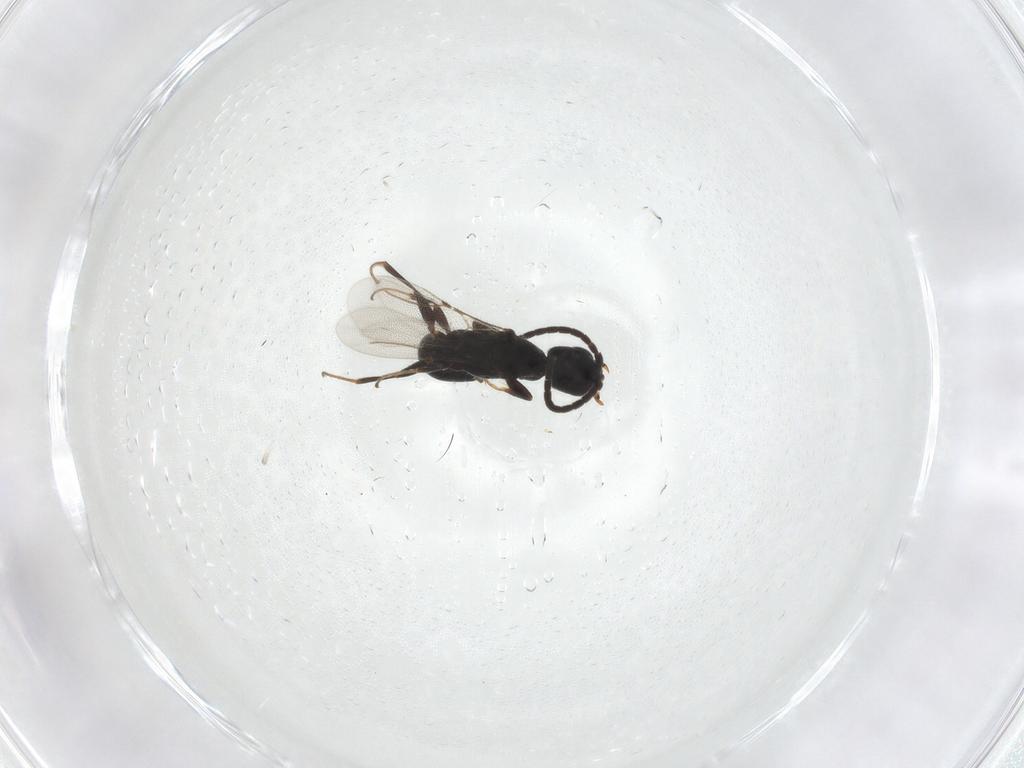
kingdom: Animalia
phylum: Arthropoda
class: Insecta
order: Hymenoptera
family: Bethylidae
